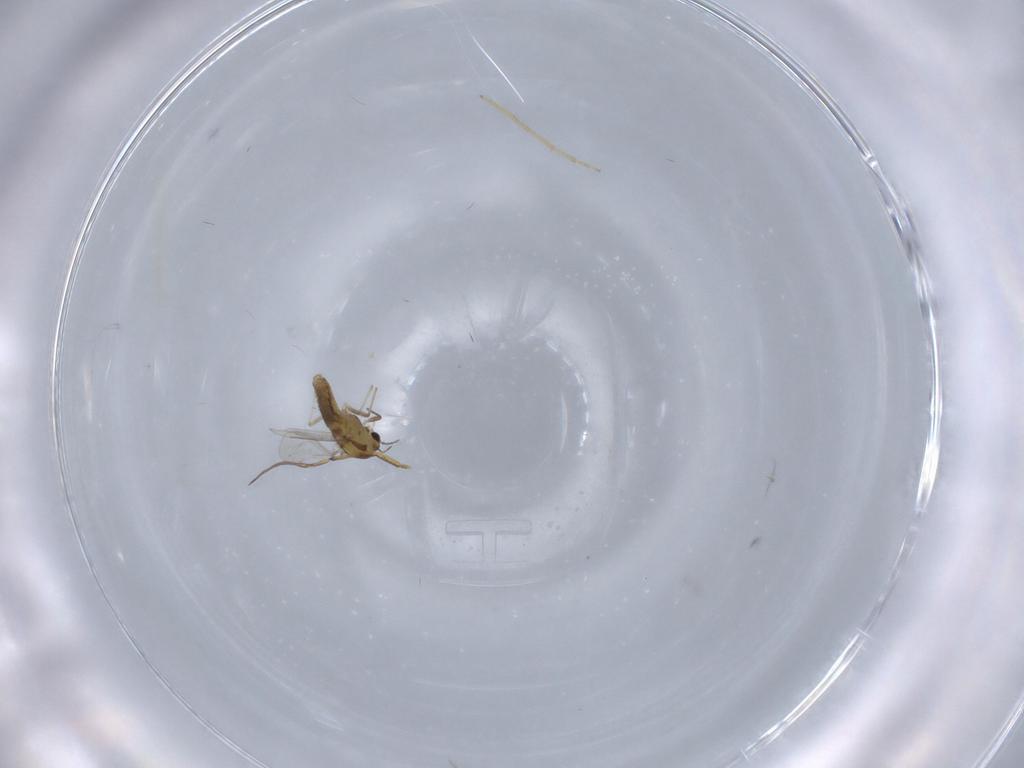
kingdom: Animalia
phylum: Arthropoda
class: Insecta
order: Diptera
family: Chironomidae
